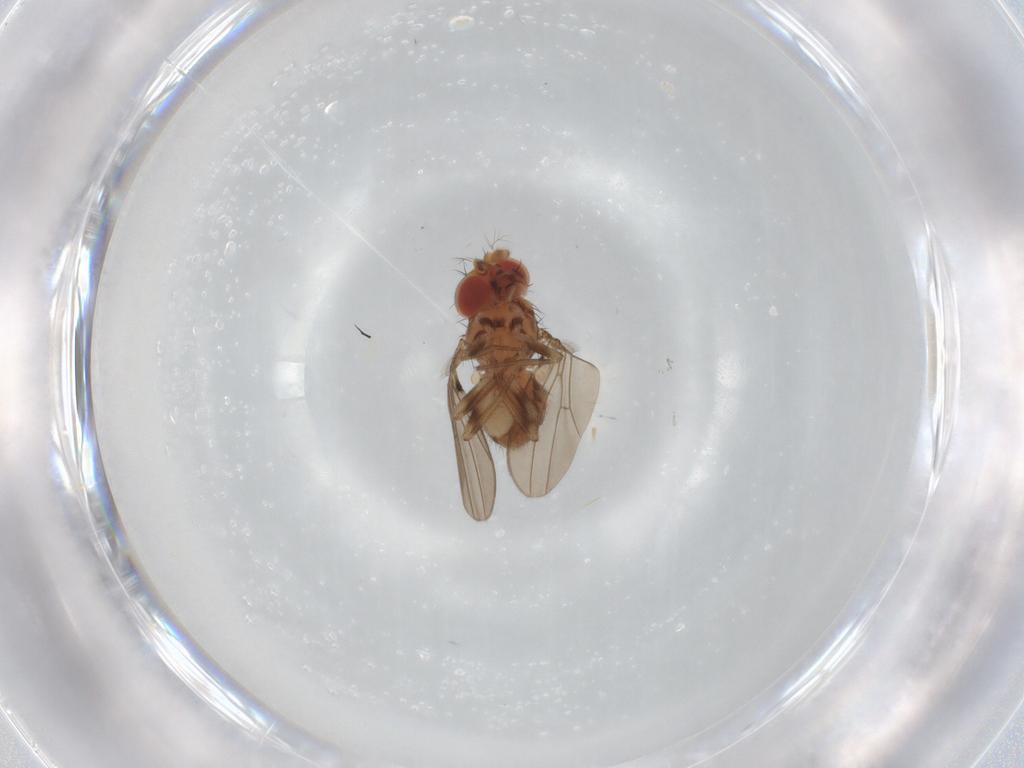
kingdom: Animalia
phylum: Arthropoda
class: Insecta
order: Diptera
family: Drosophilidae
